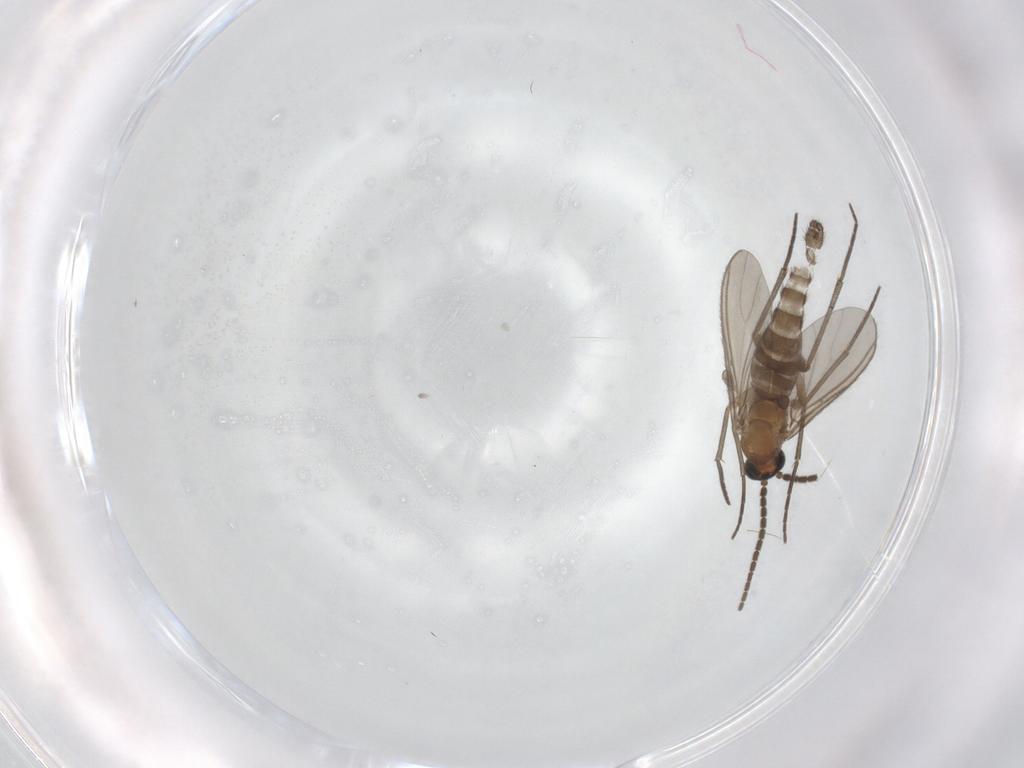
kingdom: Animalia
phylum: Arthropoda
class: Insecta
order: Diptera
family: Sciaridae
